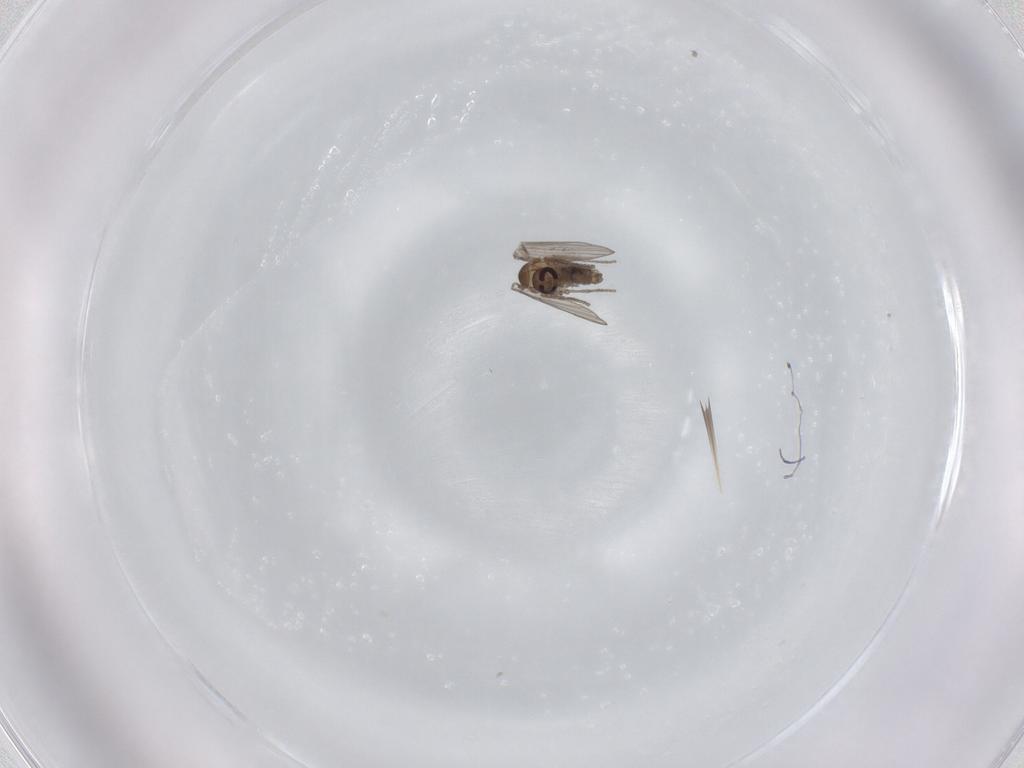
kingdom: Animalia
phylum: Arthropoda
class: Insecta
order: Diptera
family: Psychodidae
